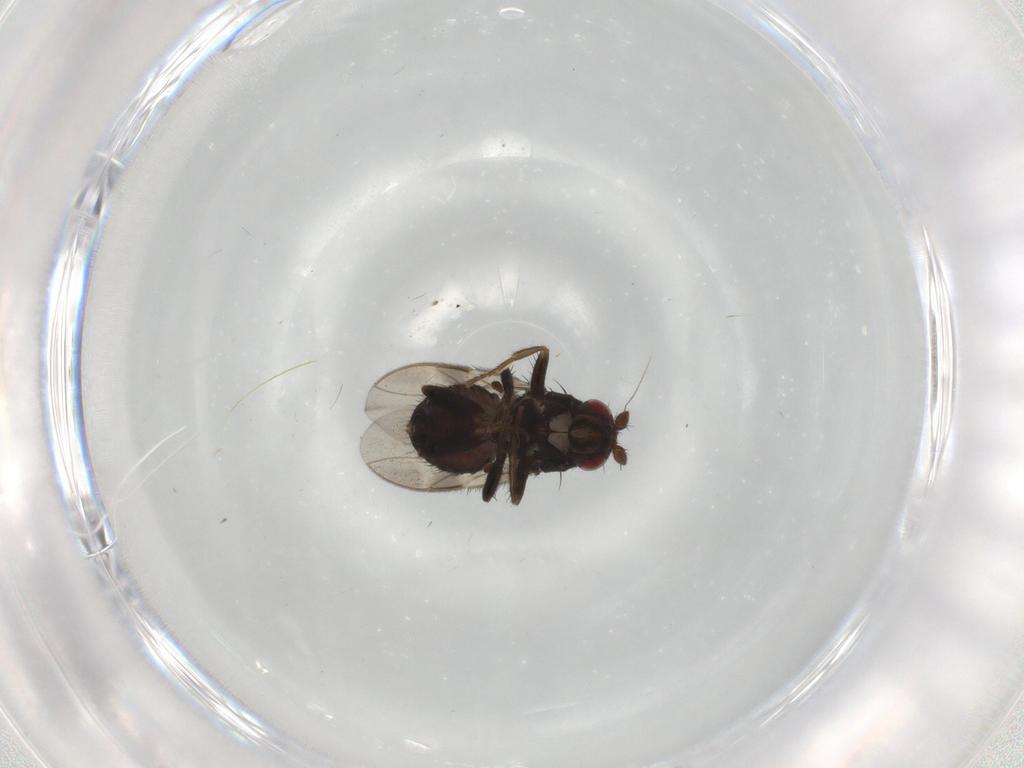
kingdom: Animalia
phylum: Arthropoda
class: Insecta
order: Diptera
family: Sphaeroceridae
